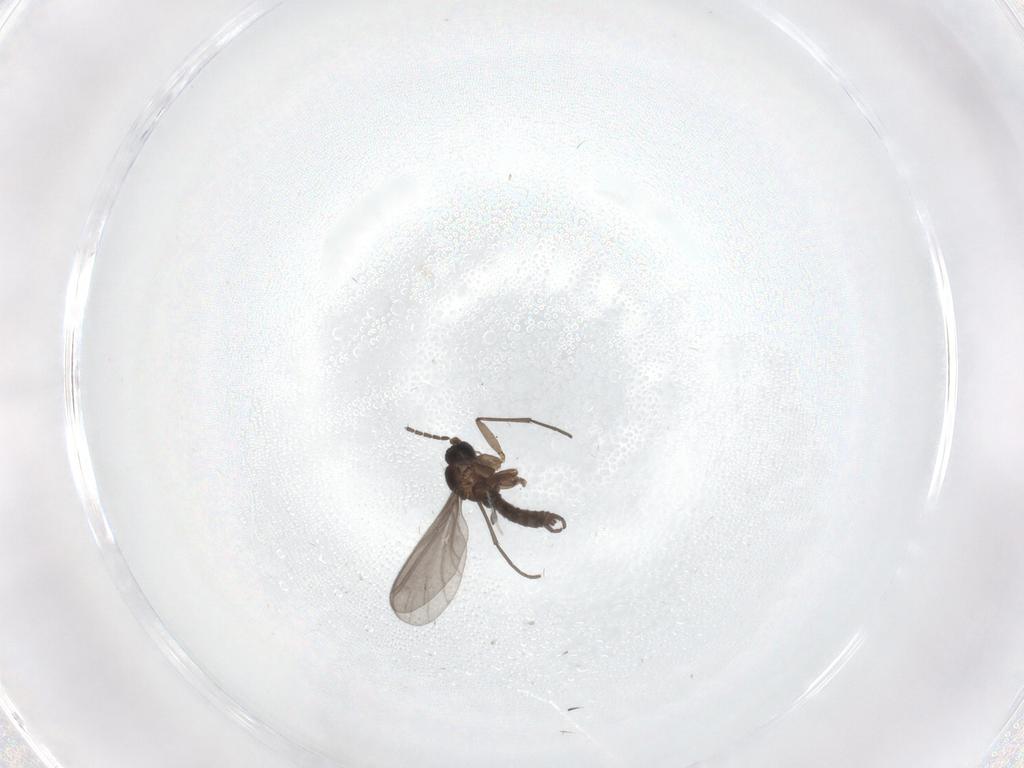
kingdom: Animalia
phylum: Arthropoda
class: Insecta
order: Diptera
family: Sciaridae
